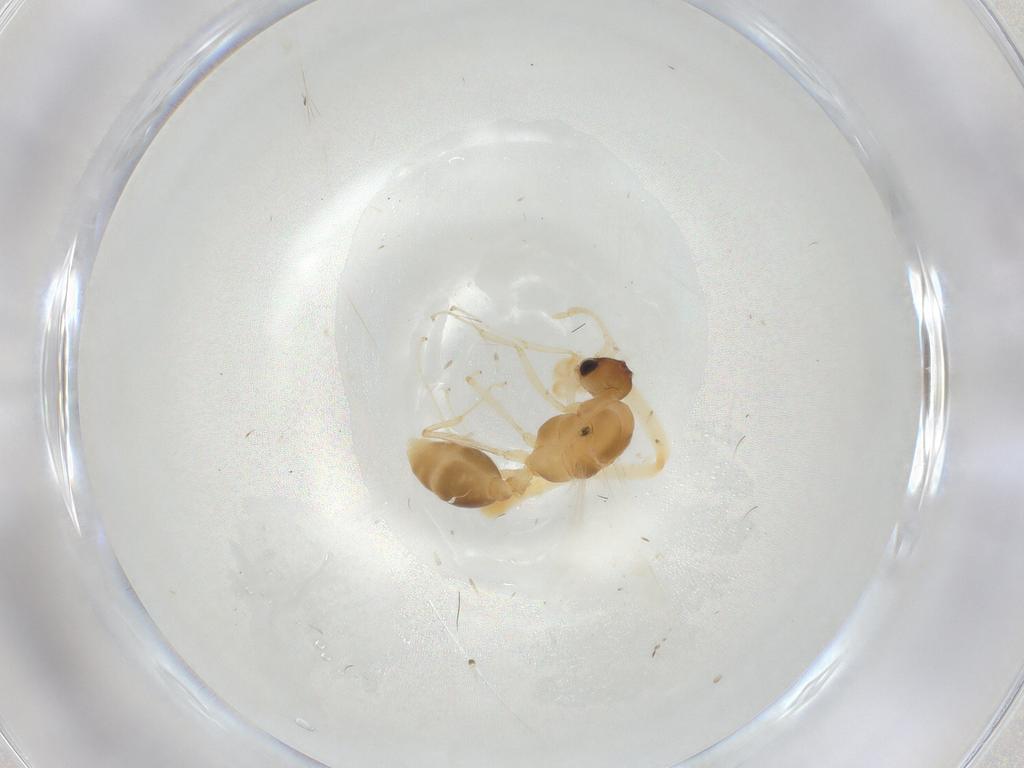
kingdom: Animalia
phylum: Arthropoda
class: Insecta
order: Hymenoptera
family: Formicidae
